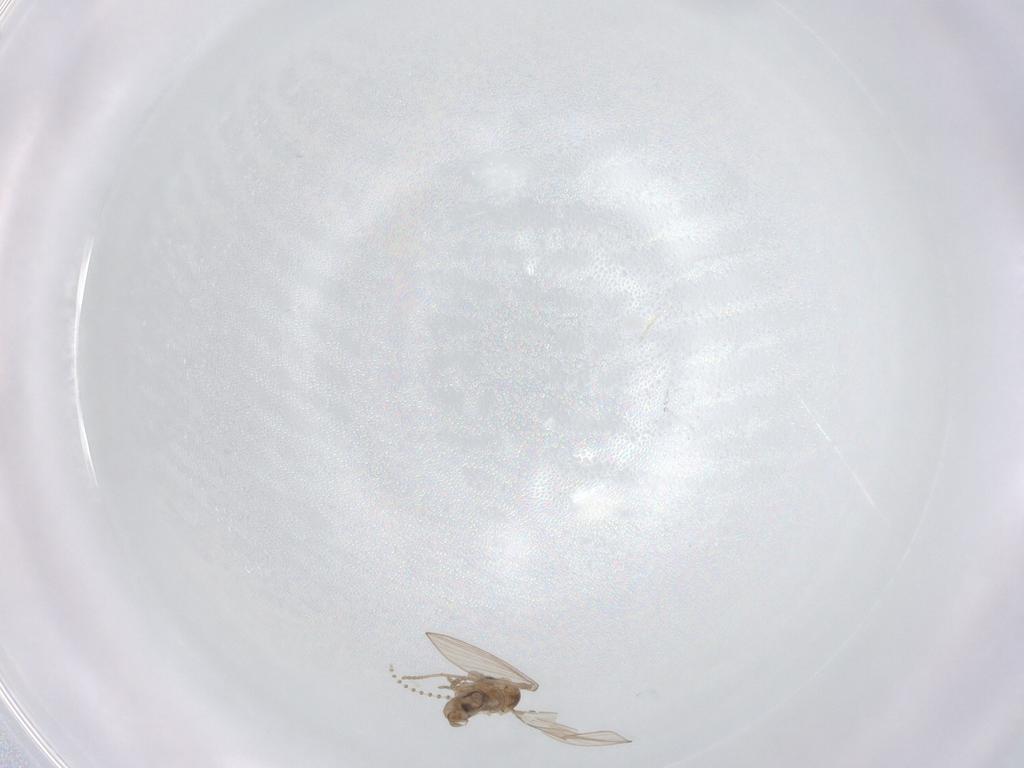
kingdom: Animalia
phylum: Arthropoda
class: Insecta
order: Diptera
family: Psychodidae
